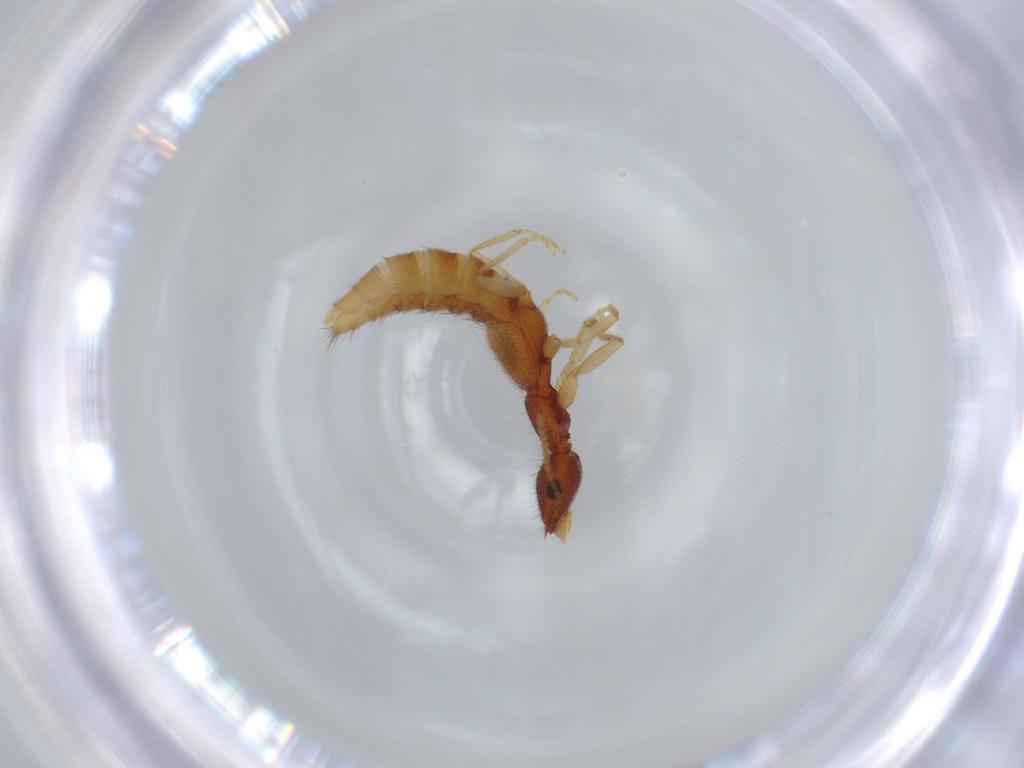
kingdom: Animalia
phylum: Arthropoda
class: Insecta
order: Coleoptera
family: Staphylinidae
